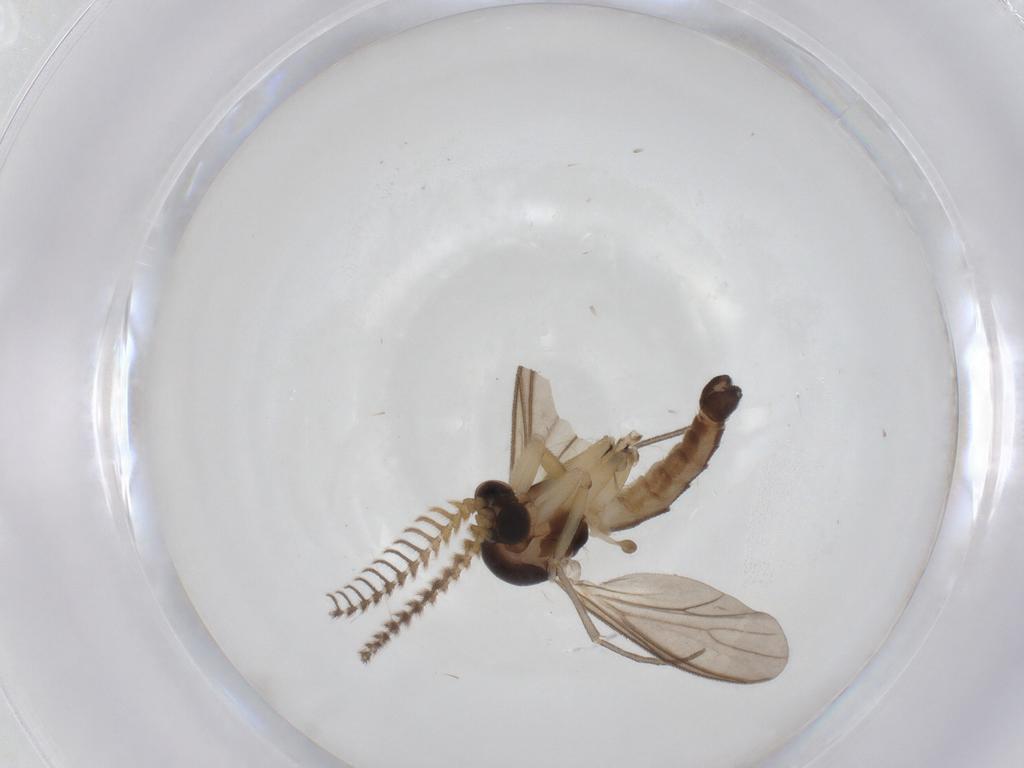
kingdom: Animalia
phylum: Arthropoda
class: Insecta
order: Diptera
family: Mycetophilidae
